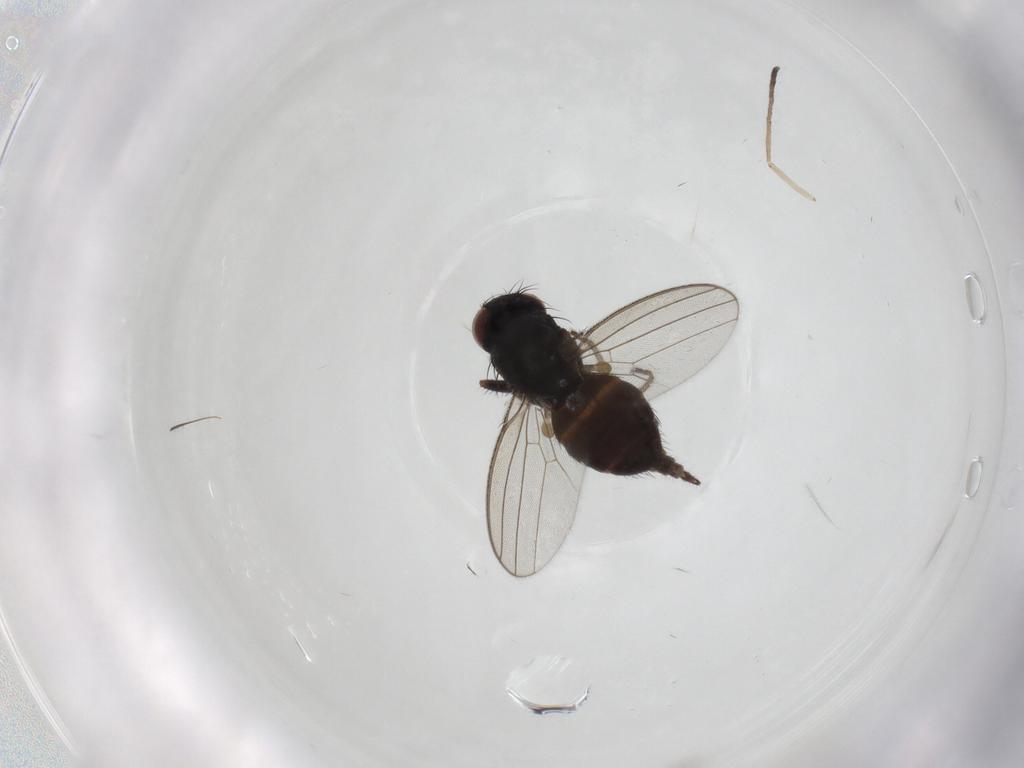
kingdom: Animalia
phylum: Arthropoda
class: Insecta
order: Diptera
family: Milichiidae
